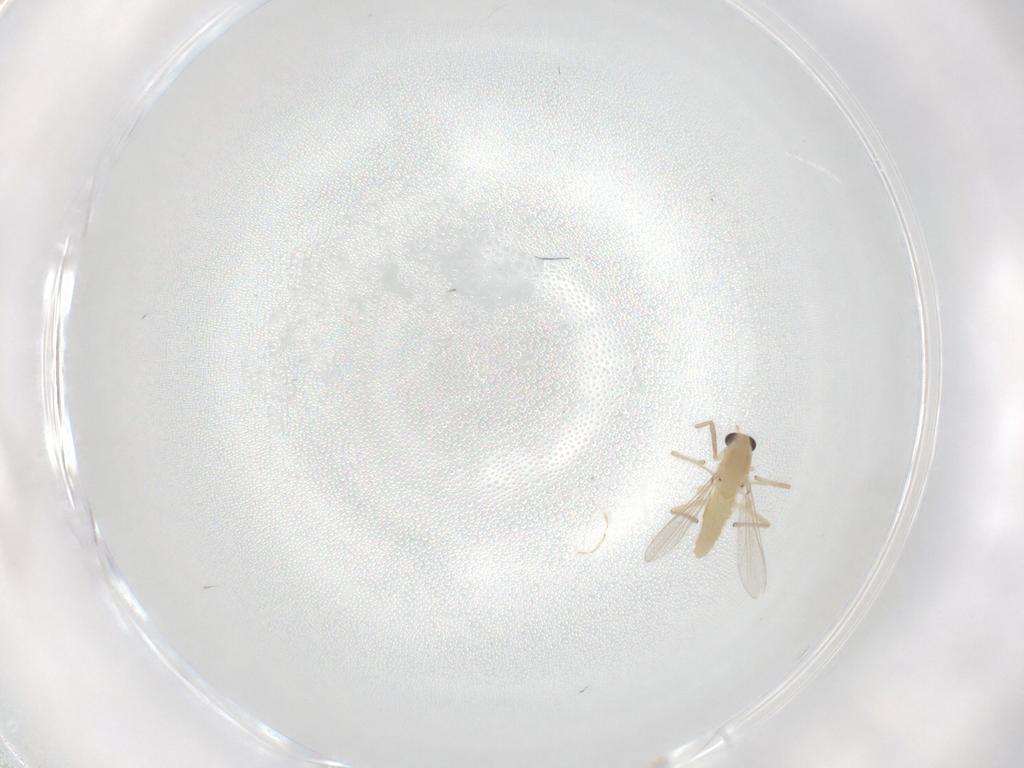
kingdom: Animalia
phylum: Arthropoda
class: Insecta
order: Diptera
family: Chironomidae
